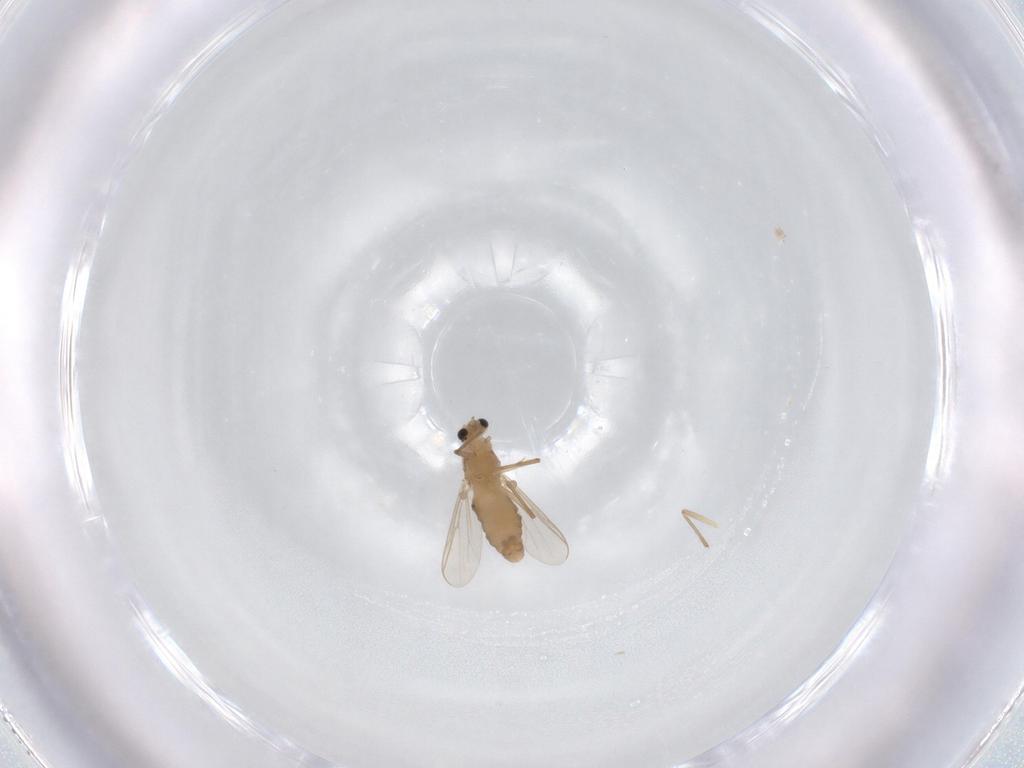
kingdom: Animalia
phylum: Arthropoda
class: Insecta
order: Diptera
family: Chironomidae
